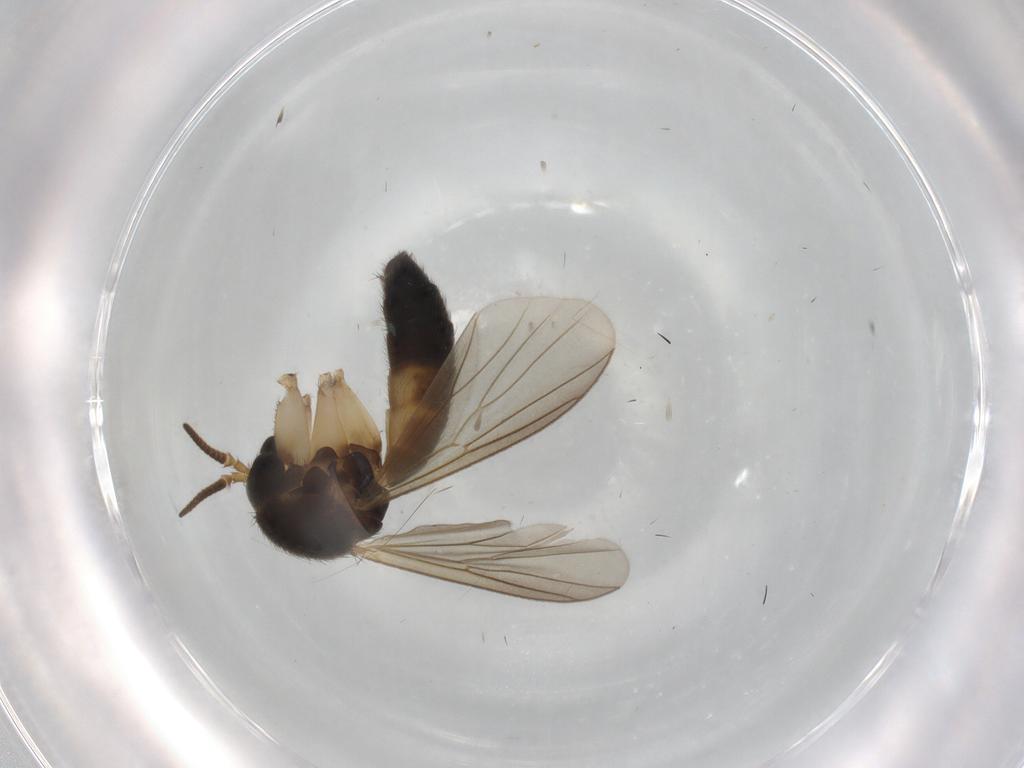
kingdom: Animalia
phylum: Arthropoda
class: Insecta
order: Diptera
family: Mycetophilidae
